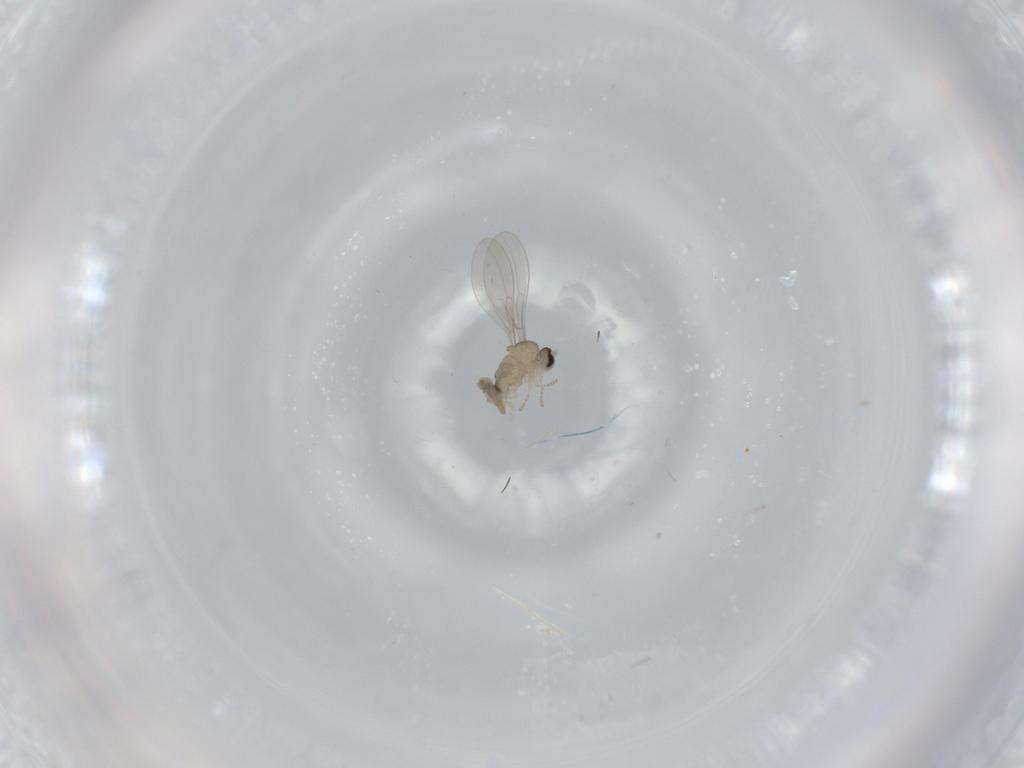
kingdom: Animalia
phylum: Arthropoda
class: Insecta
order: Diptera
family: Cecidomyiidae
